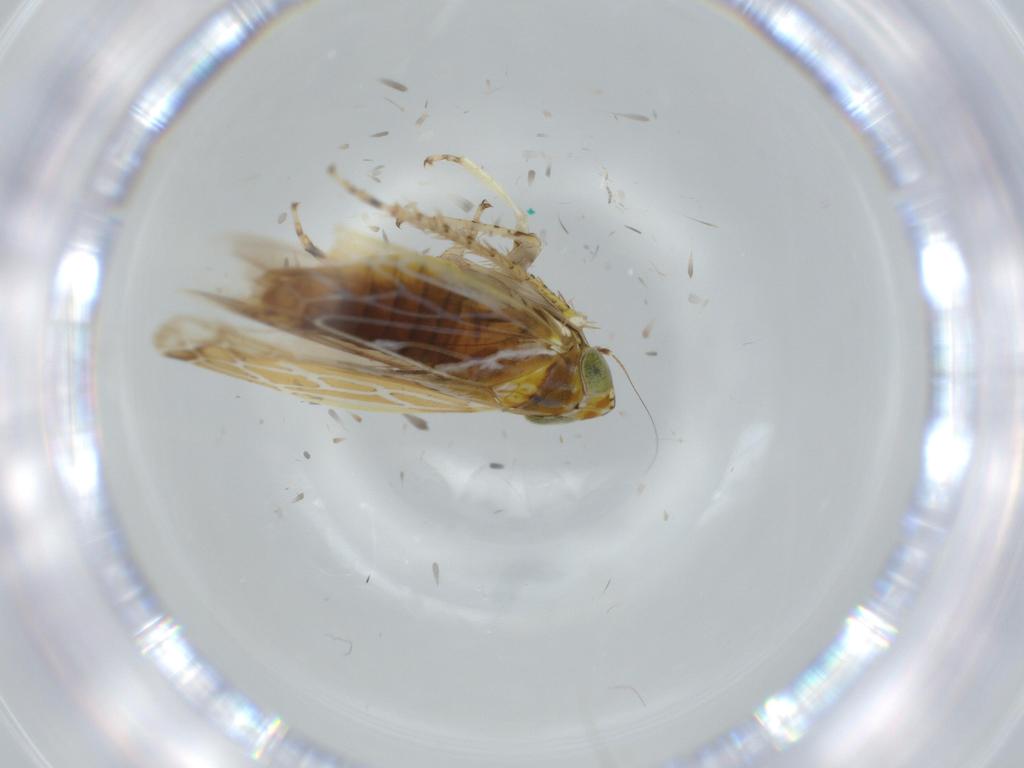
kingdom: Animalia
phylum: Arthropoda
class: Insecta
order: Hemiptera
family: Cicadellidae
